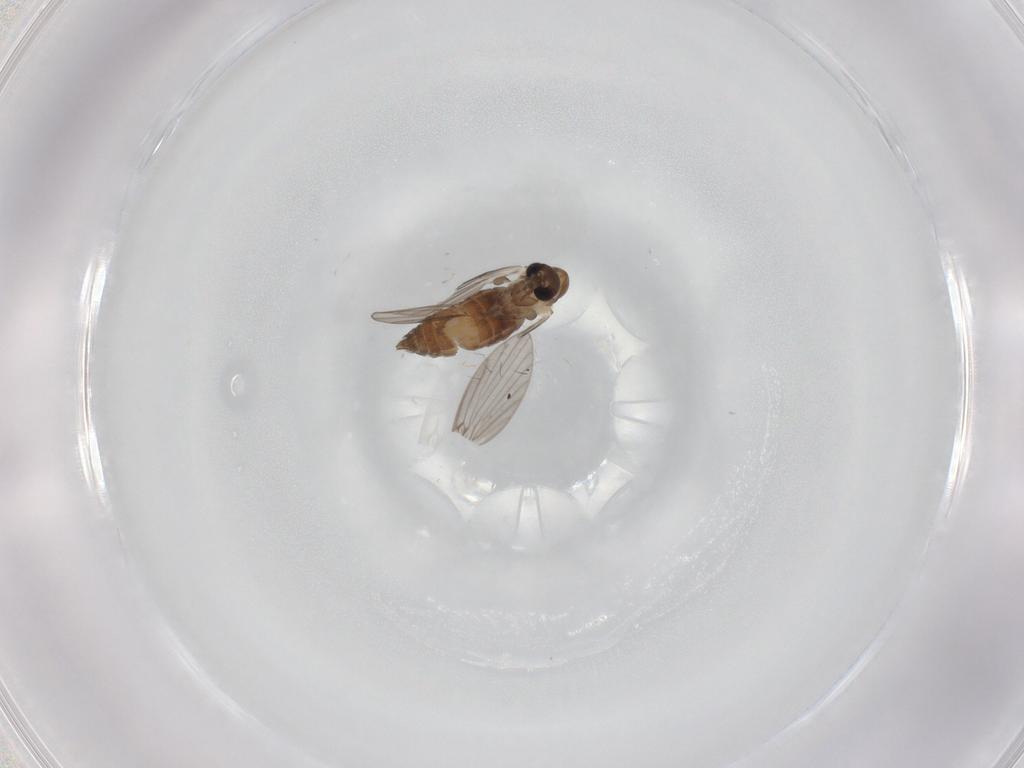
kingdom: Animalia
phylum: Arthropoda
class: Insecta
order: Diptera
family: Psychodidae
